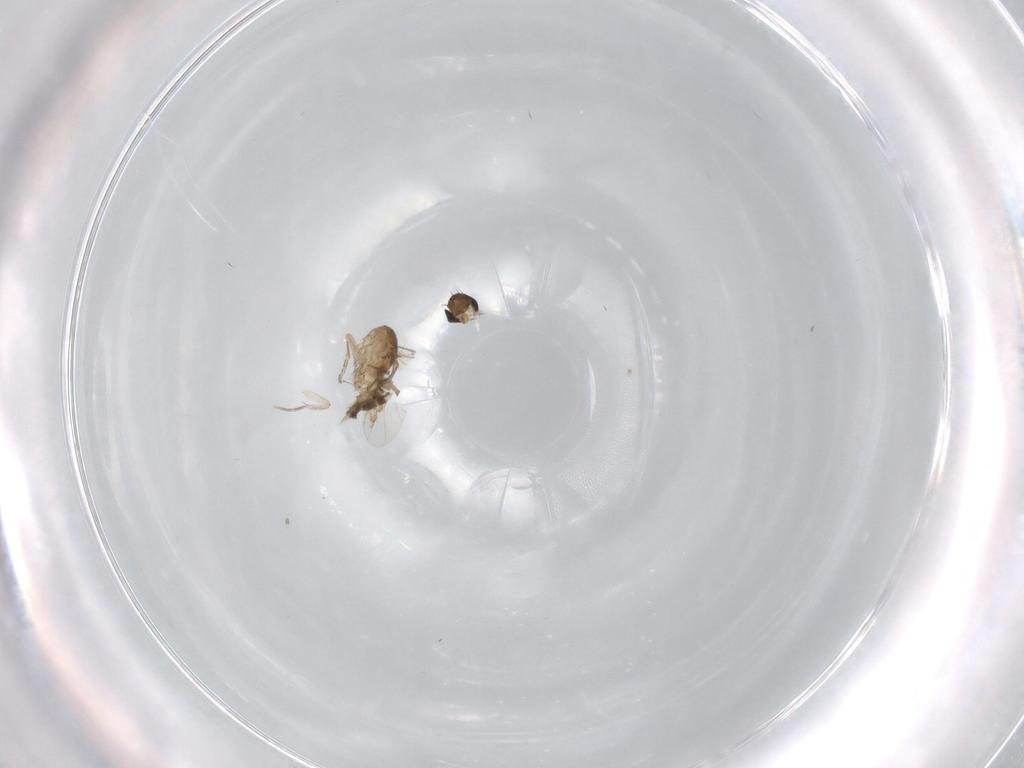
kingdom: Animalia
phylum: Arthropoda
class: Insecta
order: Diptera
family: Phoridae
